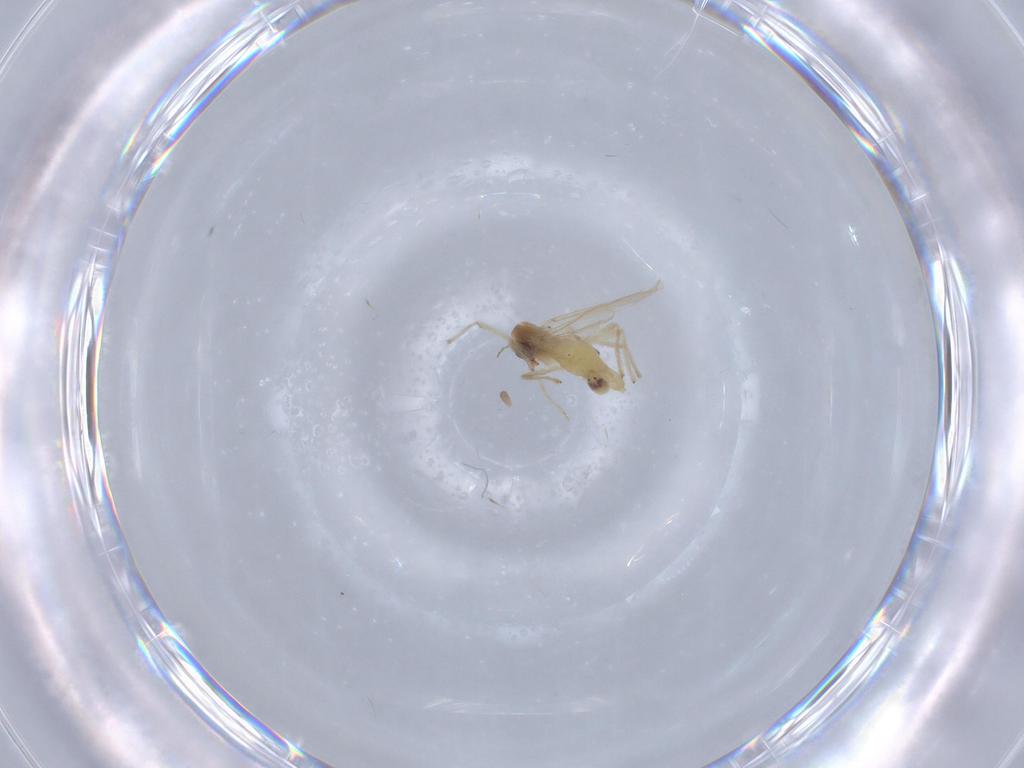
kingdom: Animalia
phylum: Arthropoda
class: Insecta
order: Diptera
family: Chironomidae
